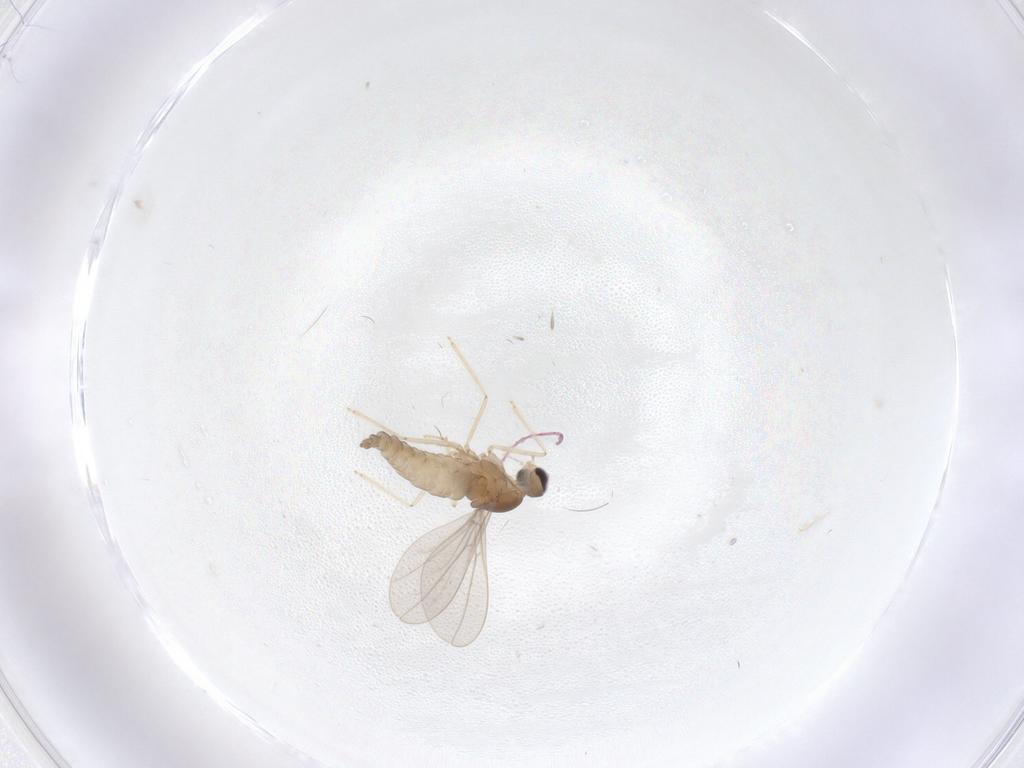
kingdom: Animalia
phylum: Arthropoda
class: Insecta
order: Diptera
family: Cecidomyiidae
